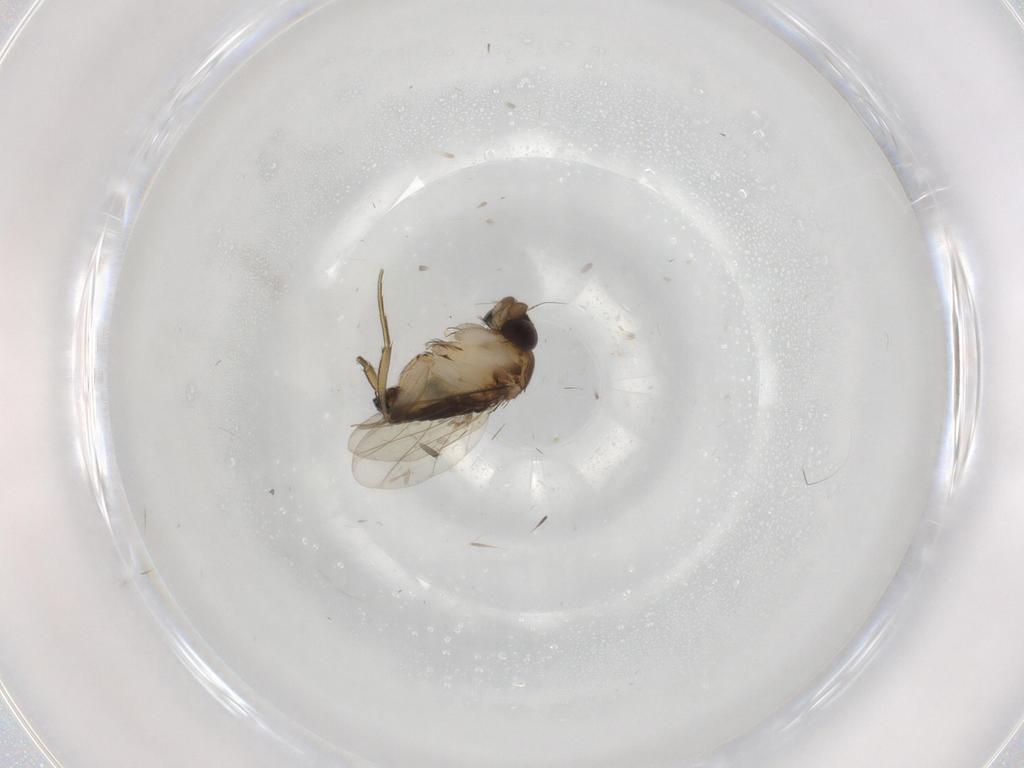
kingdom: Animalia
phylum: Arthropoda
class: Insecta
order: Diptera
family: Phoridae
